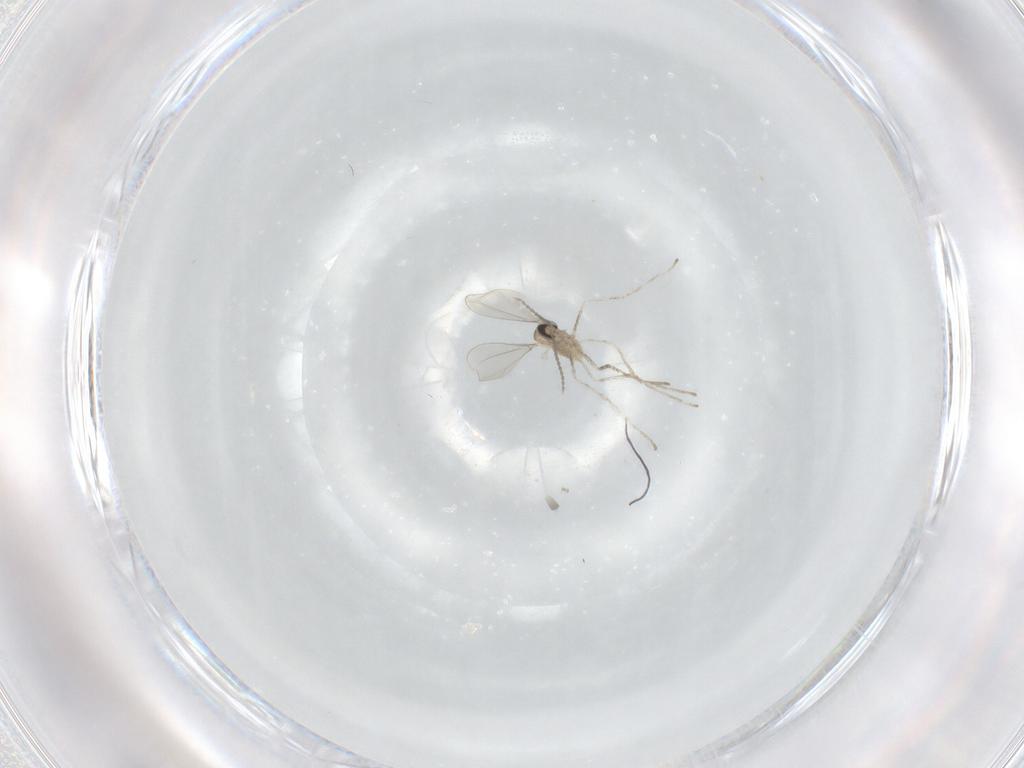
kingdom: Animalia
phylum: Arthropoda
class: Insecta
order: Diptera
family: Cecidomyiidae
